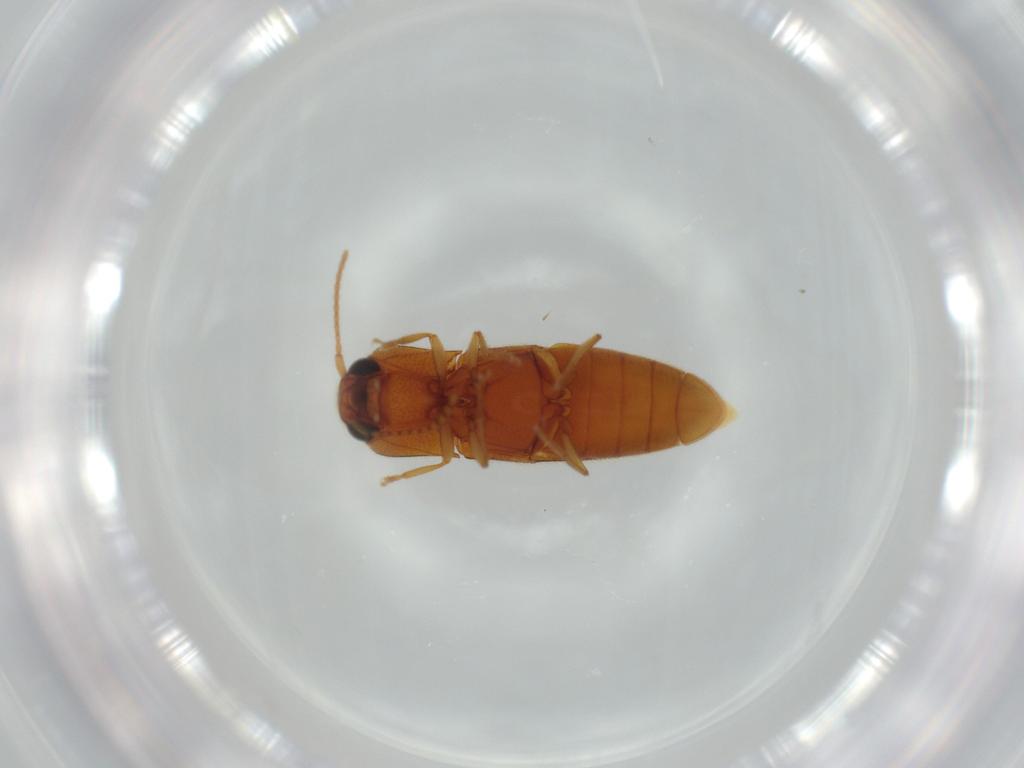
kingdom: Animalia
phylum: Arthropoda
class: Insecta
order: Coleoptera
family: Elateridae
